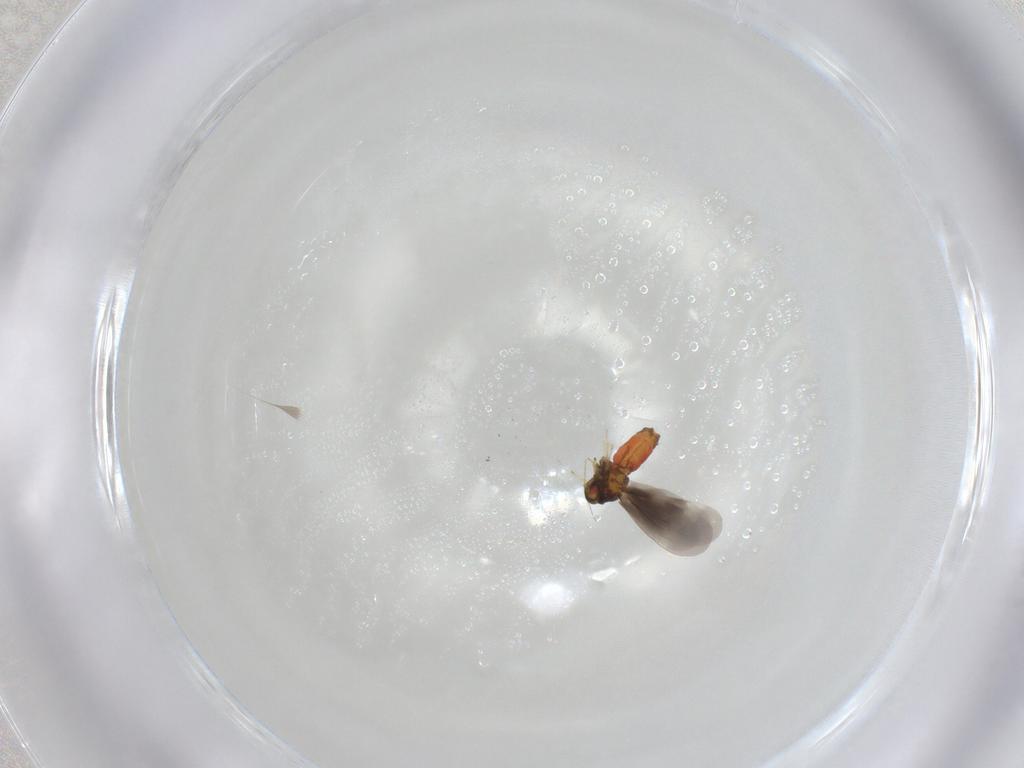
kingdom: Animalia
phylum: Arthropoda
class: Insecta
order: Hemiptera
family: Aleyrodidae
